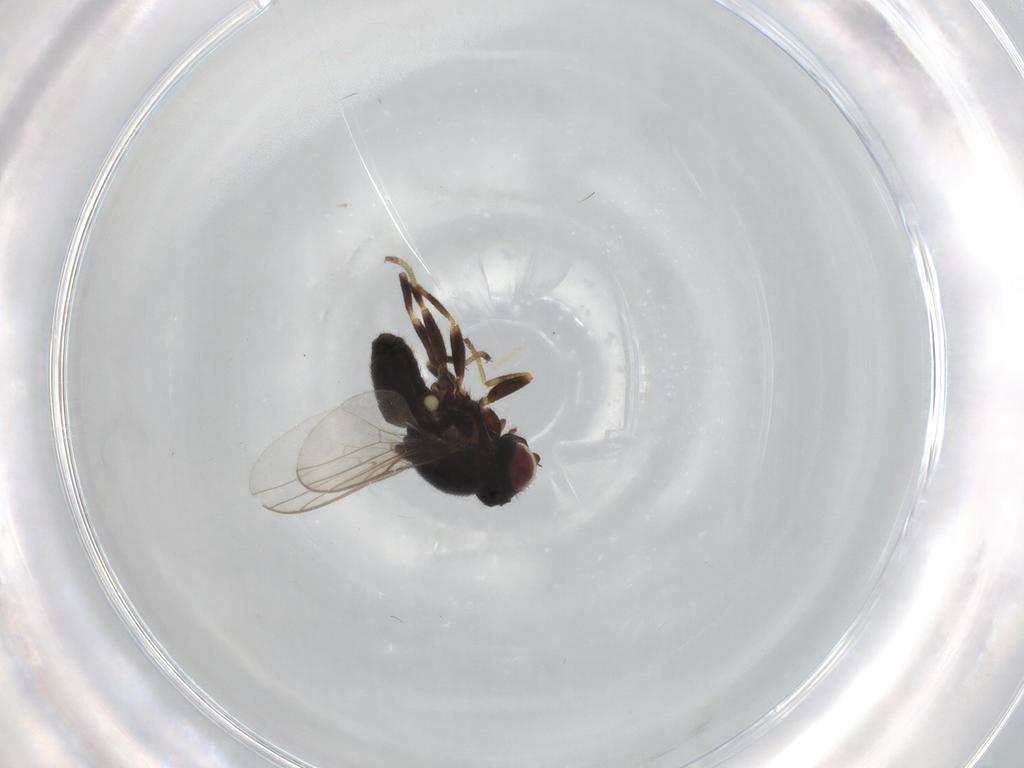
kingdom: Animalia
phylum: Arthropoda
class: Insecta
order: Diptera
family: Chloropidae
